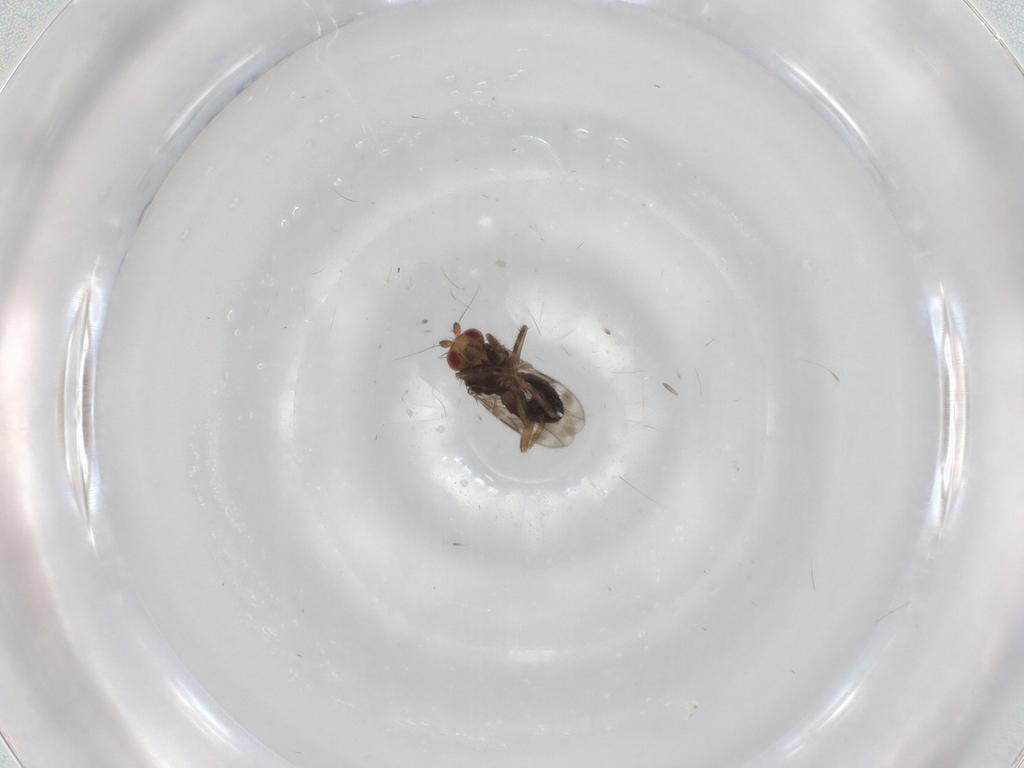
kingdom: Animalia
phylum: Arthropoda
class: Insecta
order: Diptera
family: Sphaeroceridae
